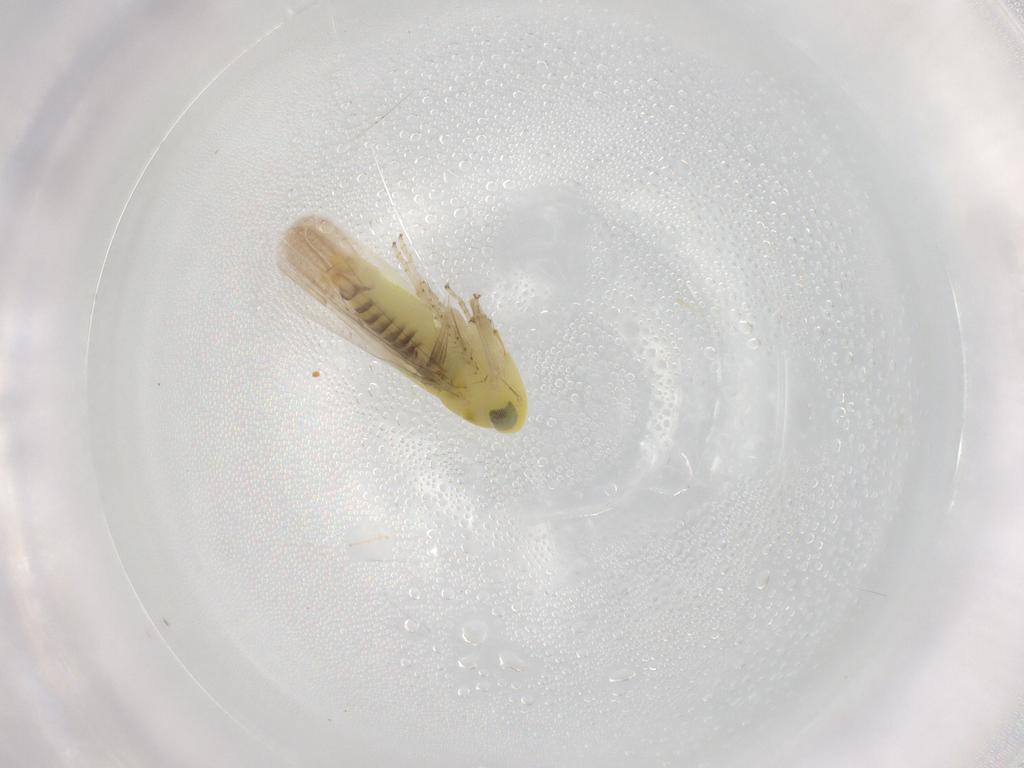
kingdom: Animalia
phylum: Arthropoda
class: Insecta
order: Hemiptera
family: Cicadellidae
